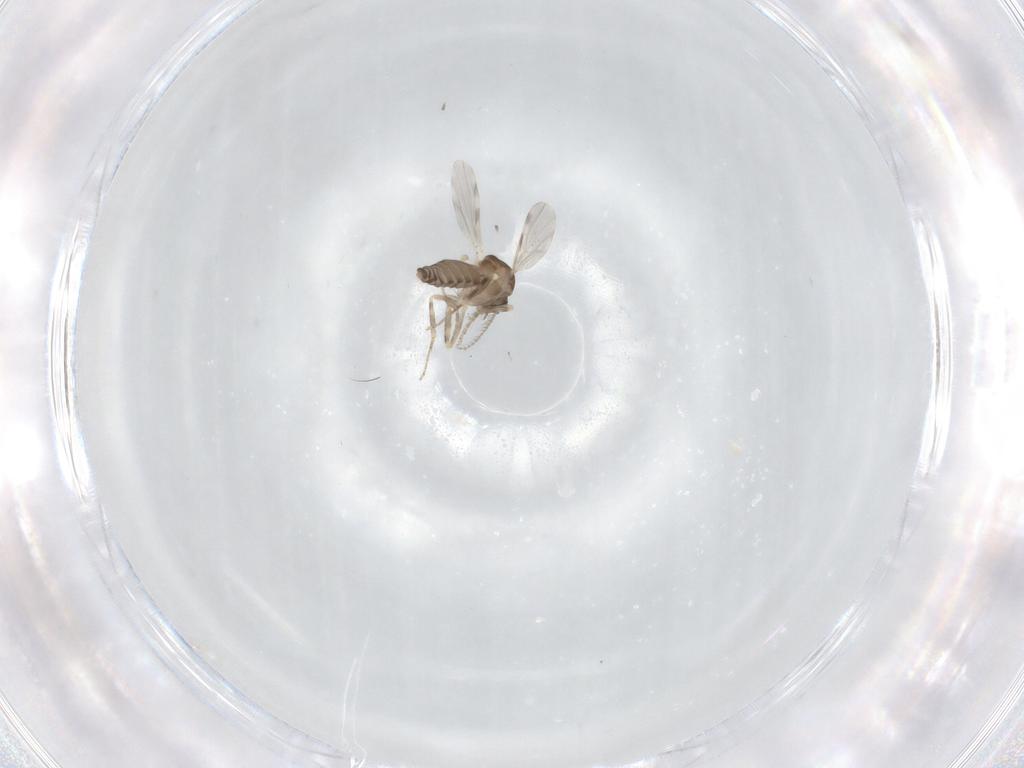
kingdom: Animalia
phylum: Arthropoda
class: Insecta
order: Diptera
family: Ceratopogonidae
